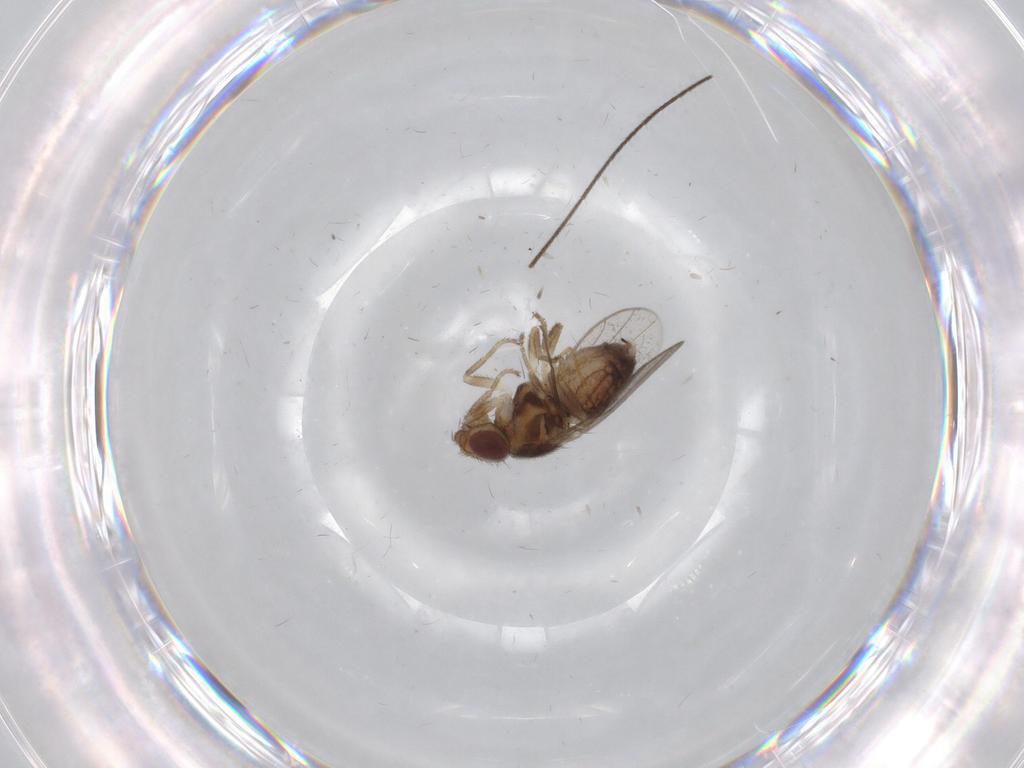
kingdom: Animalia
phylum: Arthropoda
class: Insecta
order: Diptera
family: Chloropidae
